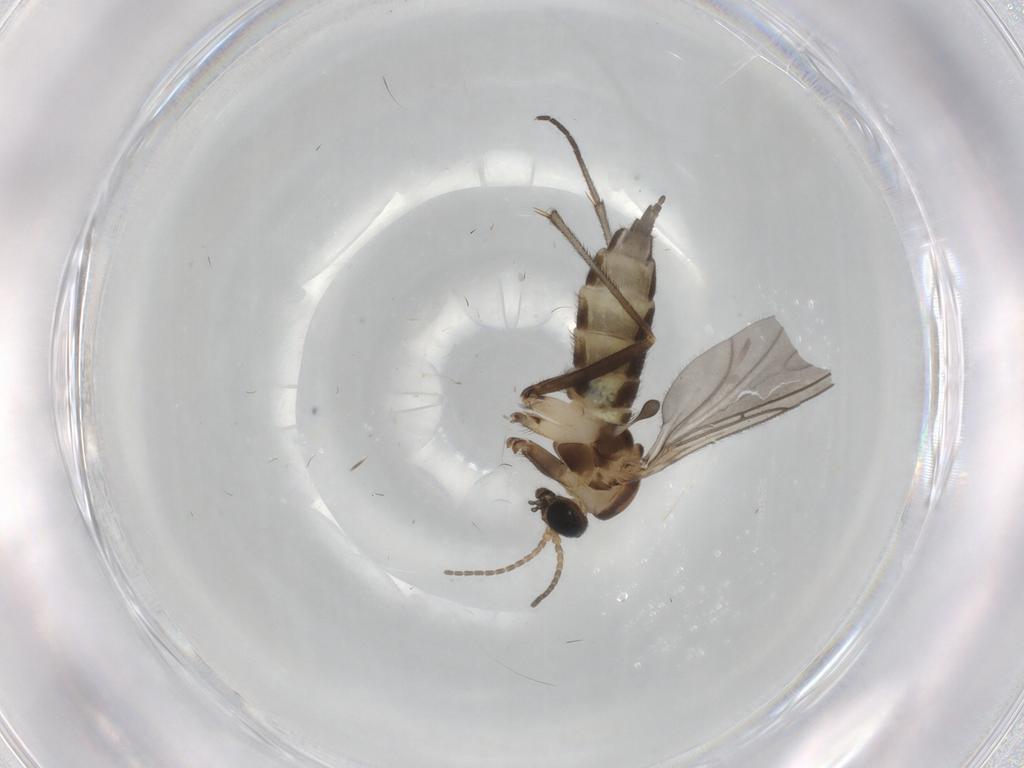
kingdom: Animalia
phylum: Arthropoda
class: Insecta
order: Diptera
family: Sciaridae
